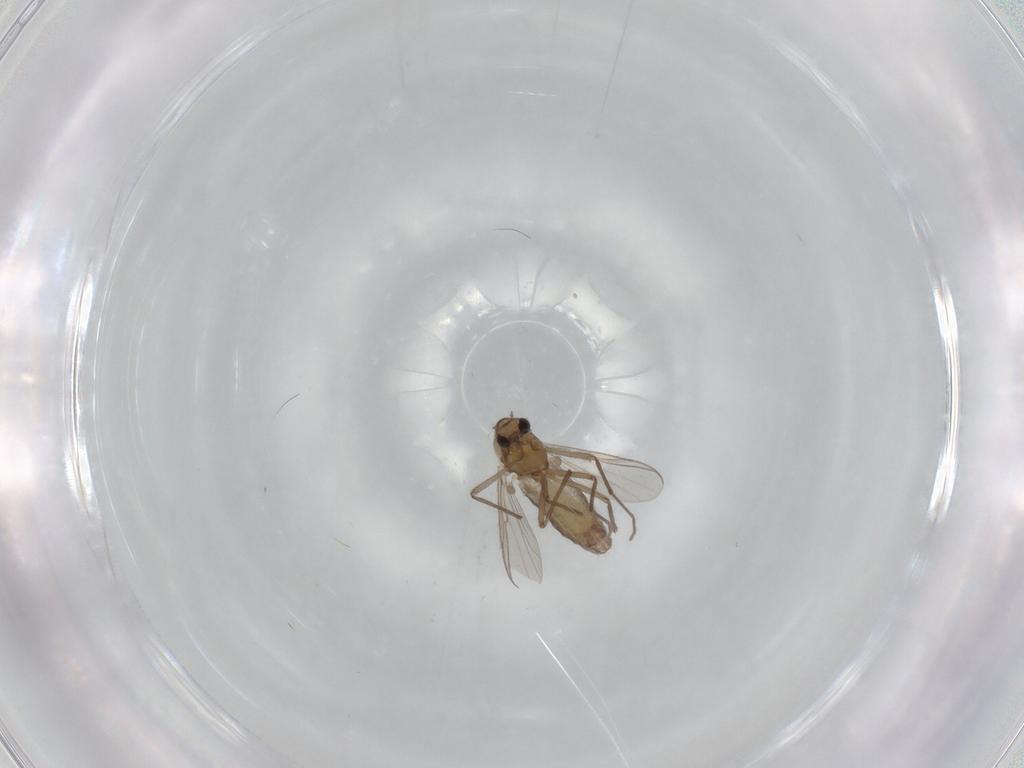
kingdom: Animalia
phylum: Arthropoda
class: Insecta
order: Diptera
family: Chironomidae
